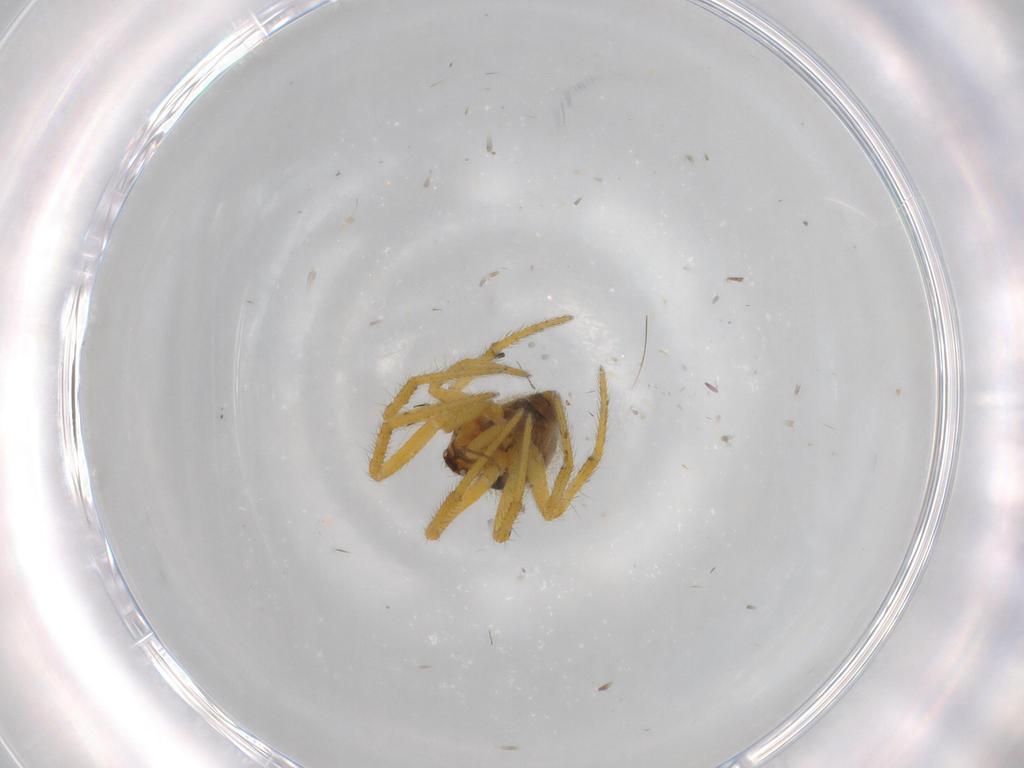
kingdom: Animalia
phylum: Arthropoda
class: Arachnida
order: Araneae
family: Theridiidae
